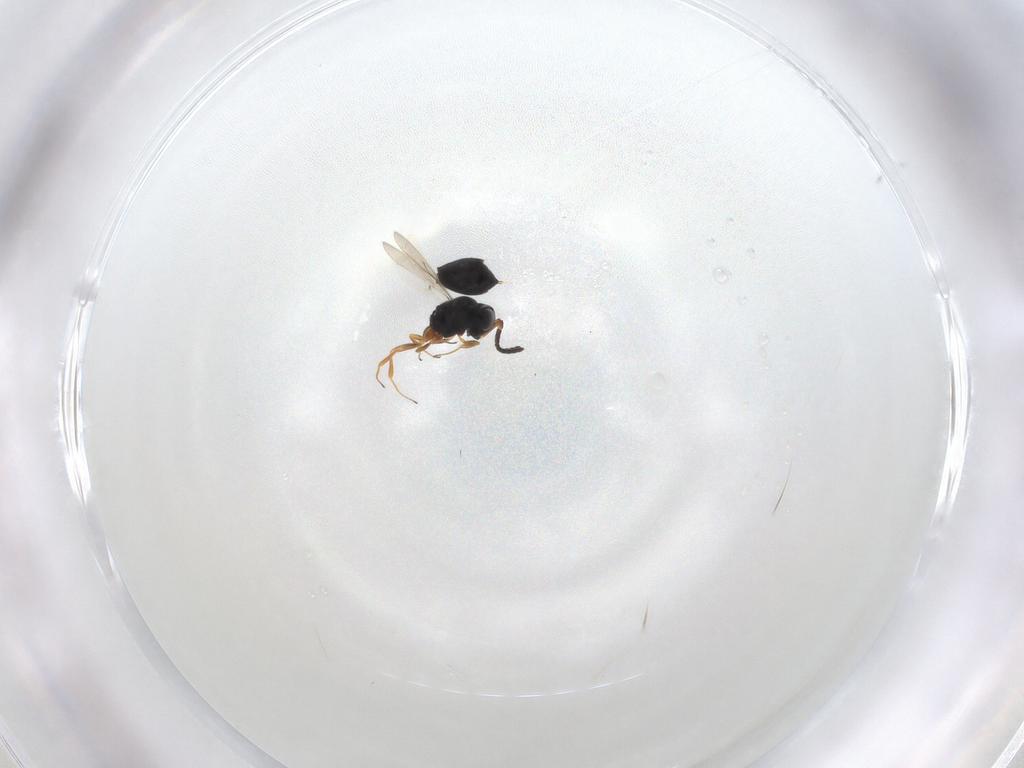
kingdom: Animalia
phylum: Arthropoda
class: Insecta
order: Hymenoptera
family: Scelionidae
